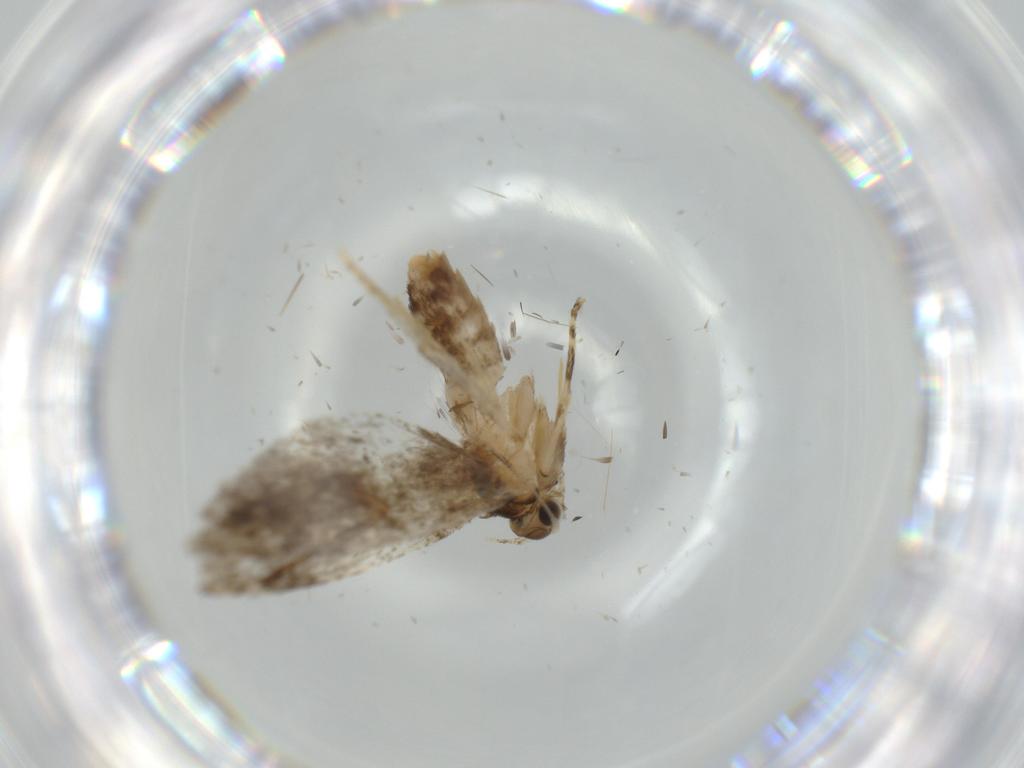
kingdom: Animalia
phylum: Arthropoda
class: Insecta
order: Lepidoptera
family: Tineidae
